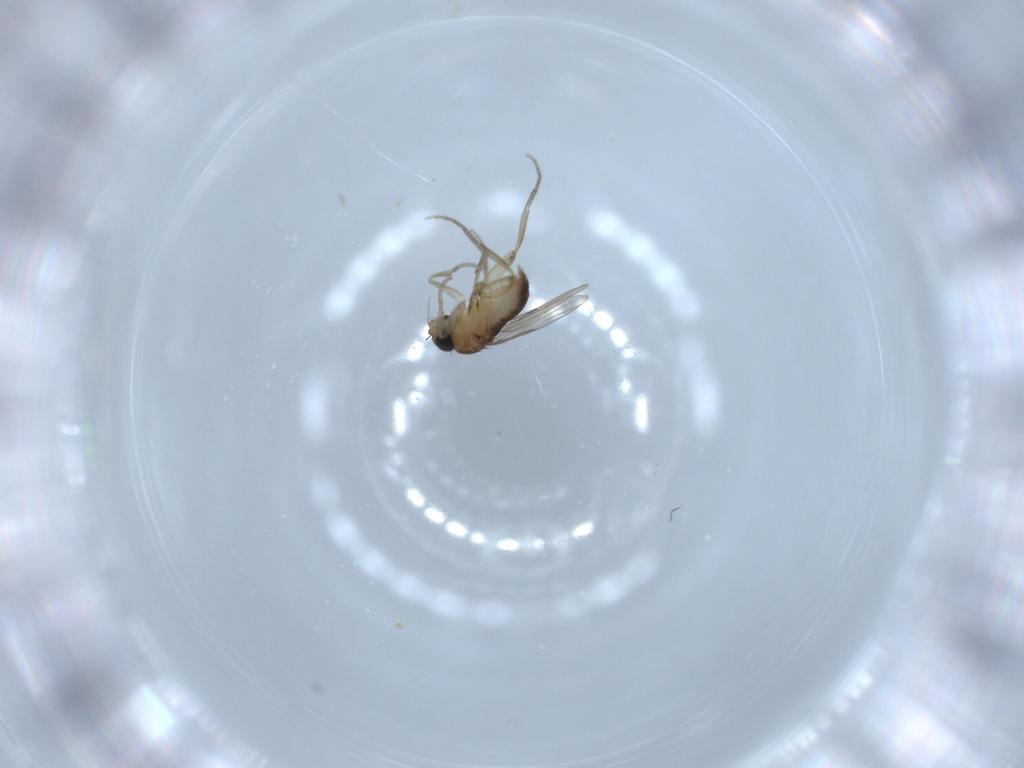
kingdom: Animalia
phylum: Arthropoda
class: Insecta
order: Diptera
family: Phoridae
